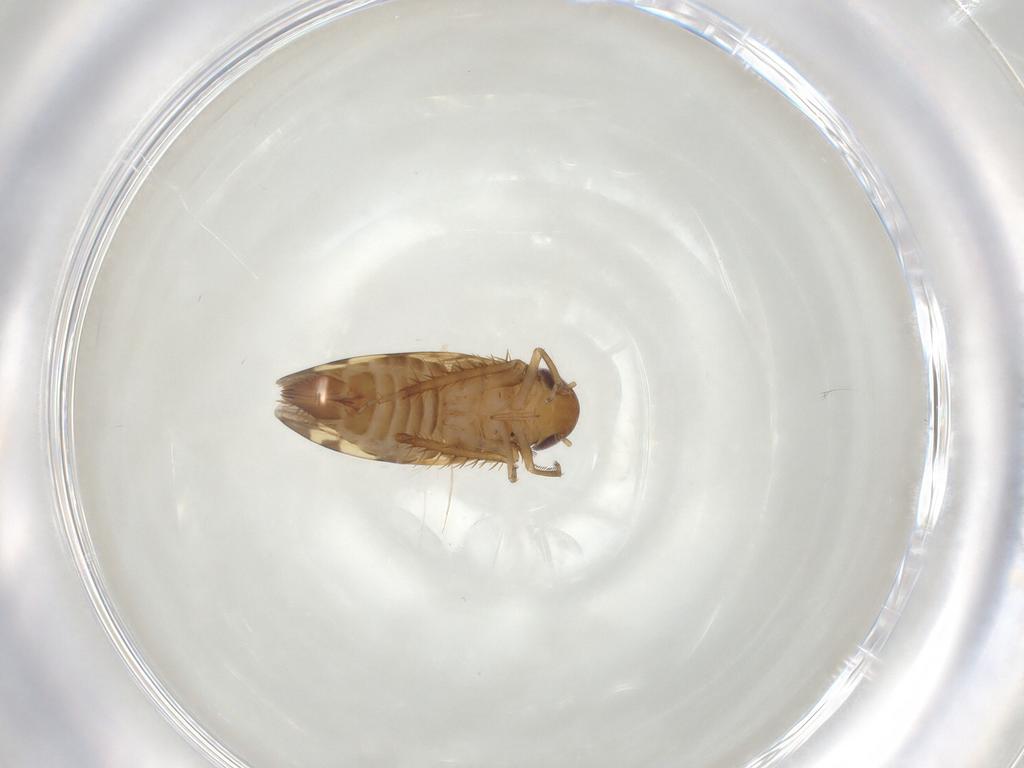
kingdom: Animalia
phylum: Arthropoda
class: Insecta
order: Hemiptera
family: Cicadellidae
